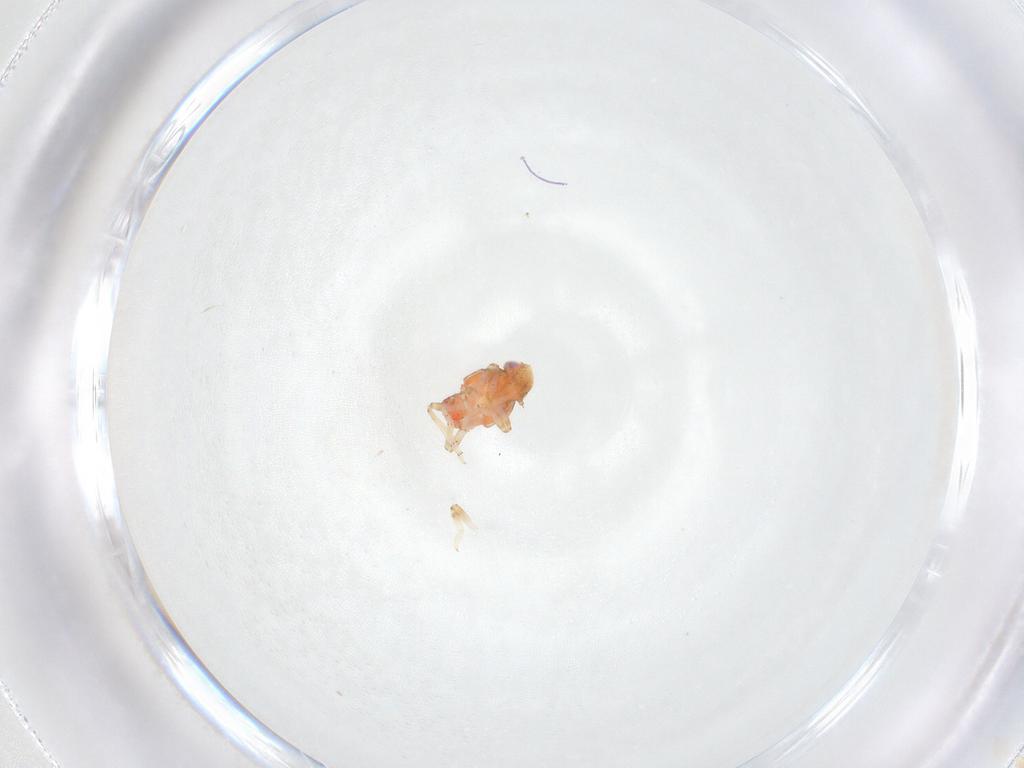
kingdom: Animalia
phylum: Arthropoda
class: Insecta
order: Hemiptera
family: Issidae
